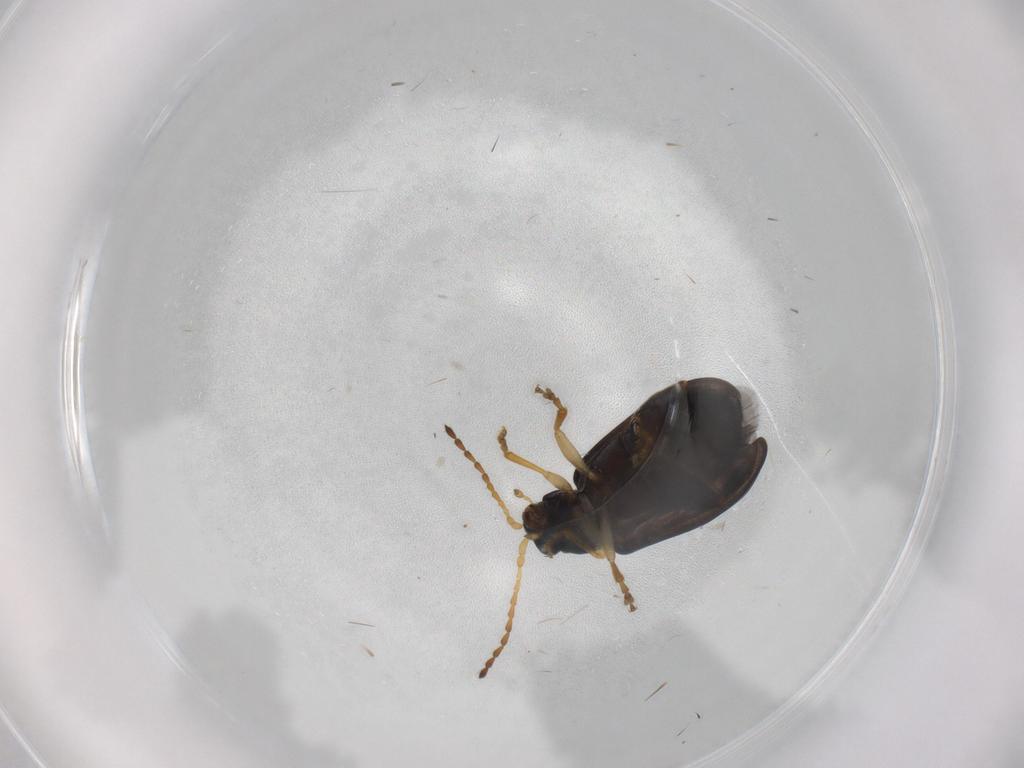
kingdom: Animalia
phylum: Arthropoda
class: Insecta
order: Coleoptera
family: Chrysomelidae
